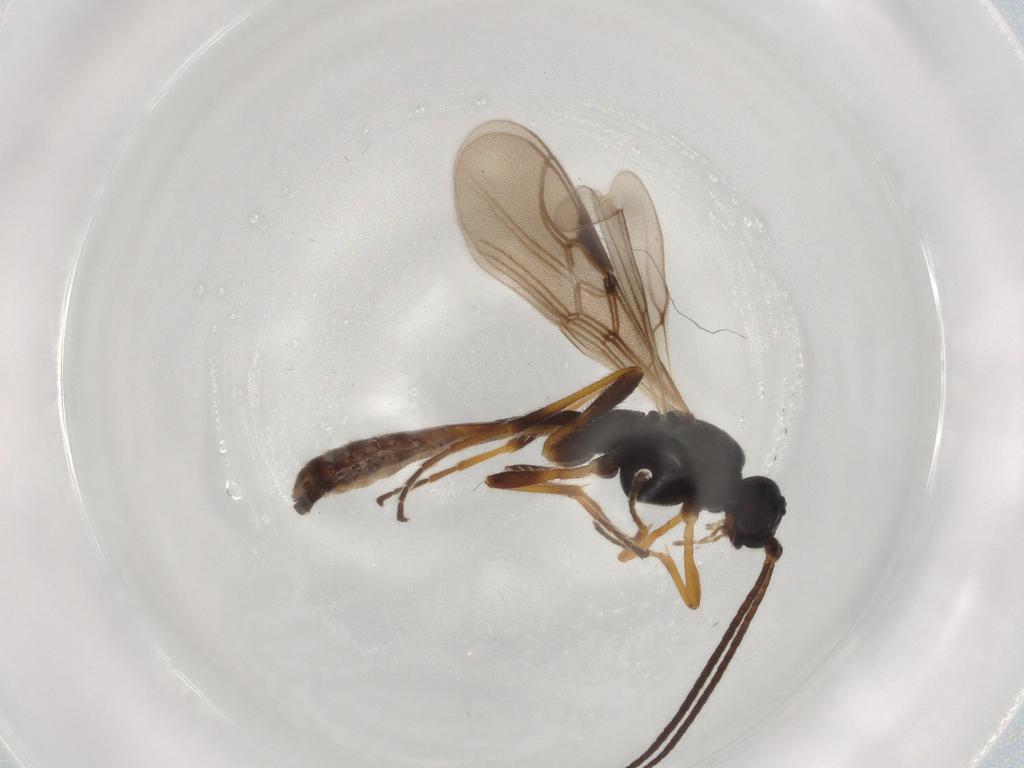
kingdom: Animalia
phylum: Arthropoda
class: Insecta
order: Hymenoptera
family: Braconidae
